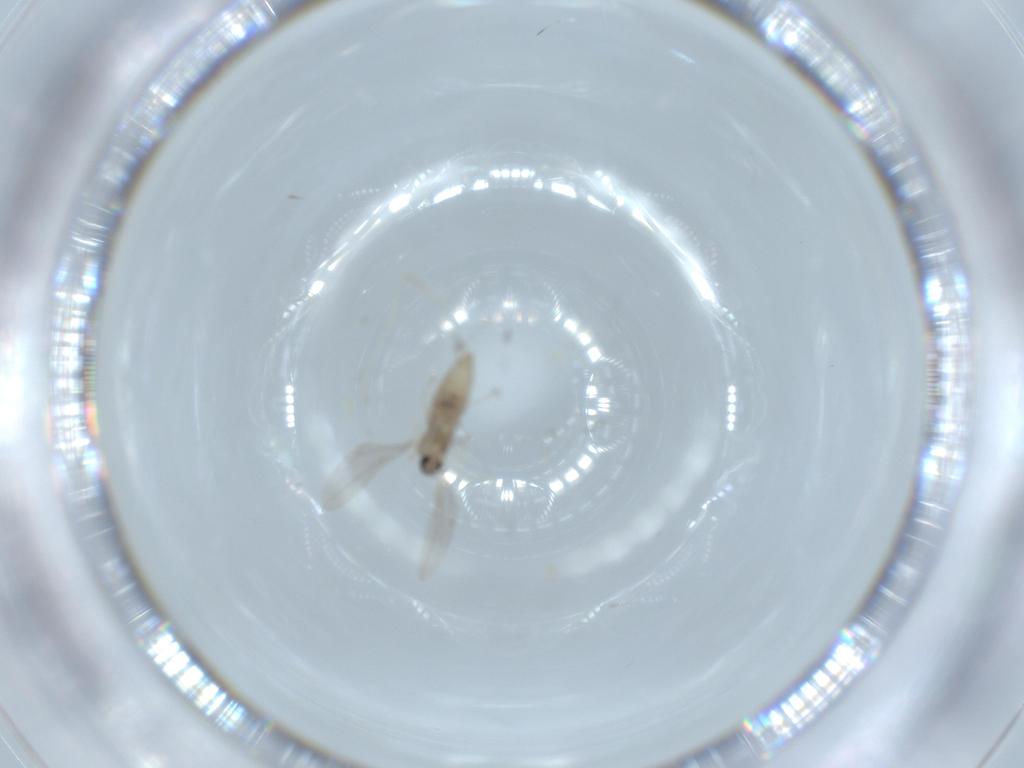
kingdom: Animalia
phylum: Arthropoda
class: Insecta
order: Diptera
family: Cecidomyiidae
